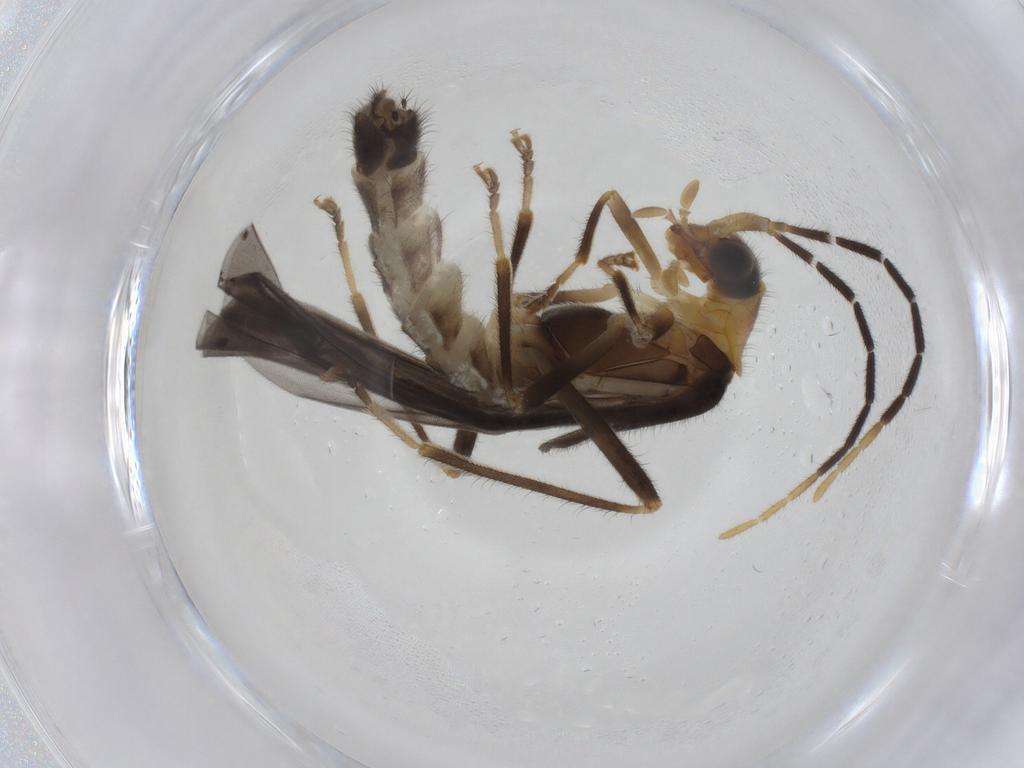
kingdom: Animalia
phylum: Arthropoda
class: Insecta
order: Coleoptera
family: Cantharidae
